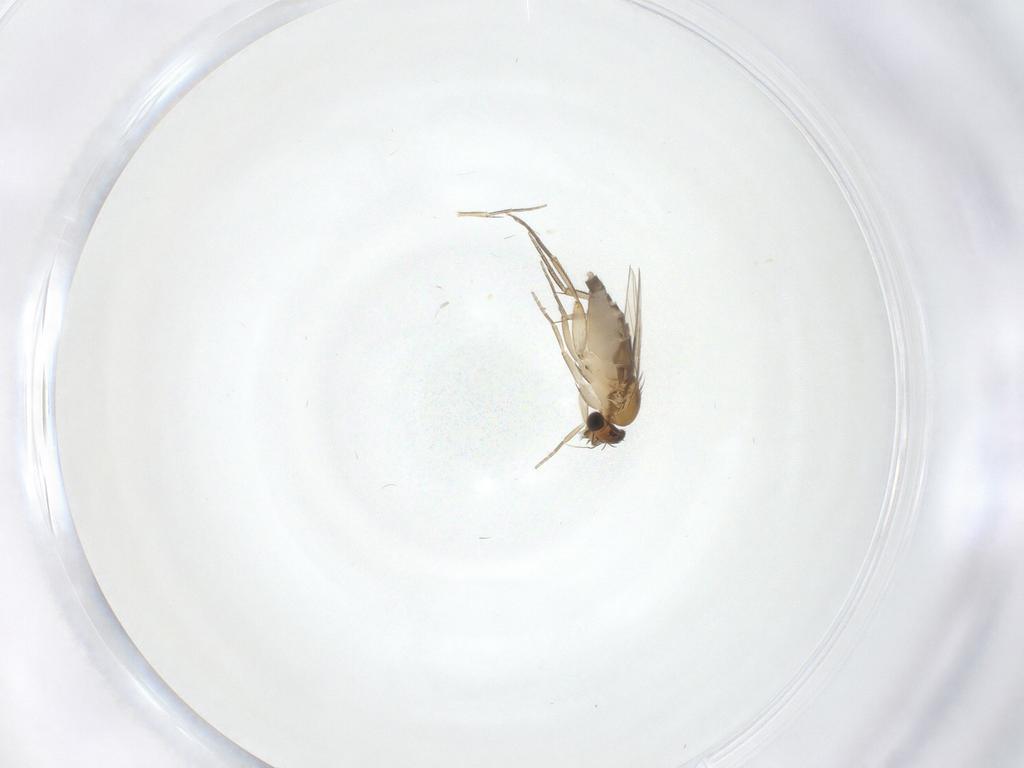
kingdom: Animalia
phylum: Arthropoda
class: Insecta
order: Diptera
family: Phoridae
